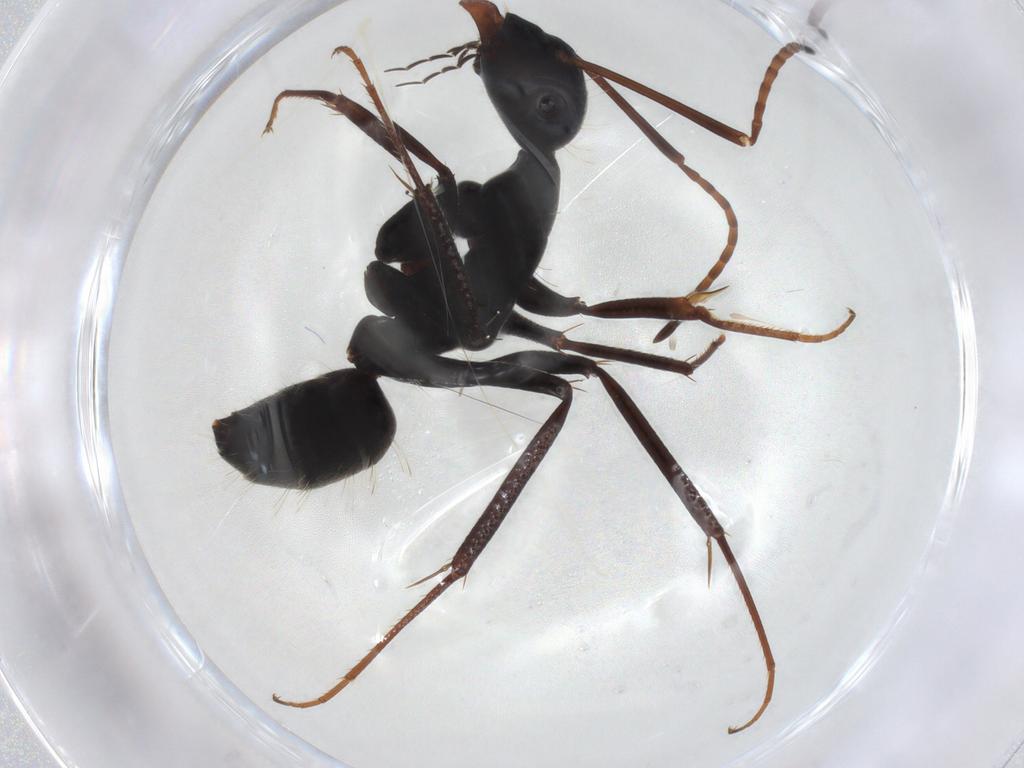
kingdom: Animalia
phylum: Arthropoda
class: Insecta
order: Hymenoptera
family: Formicidae
